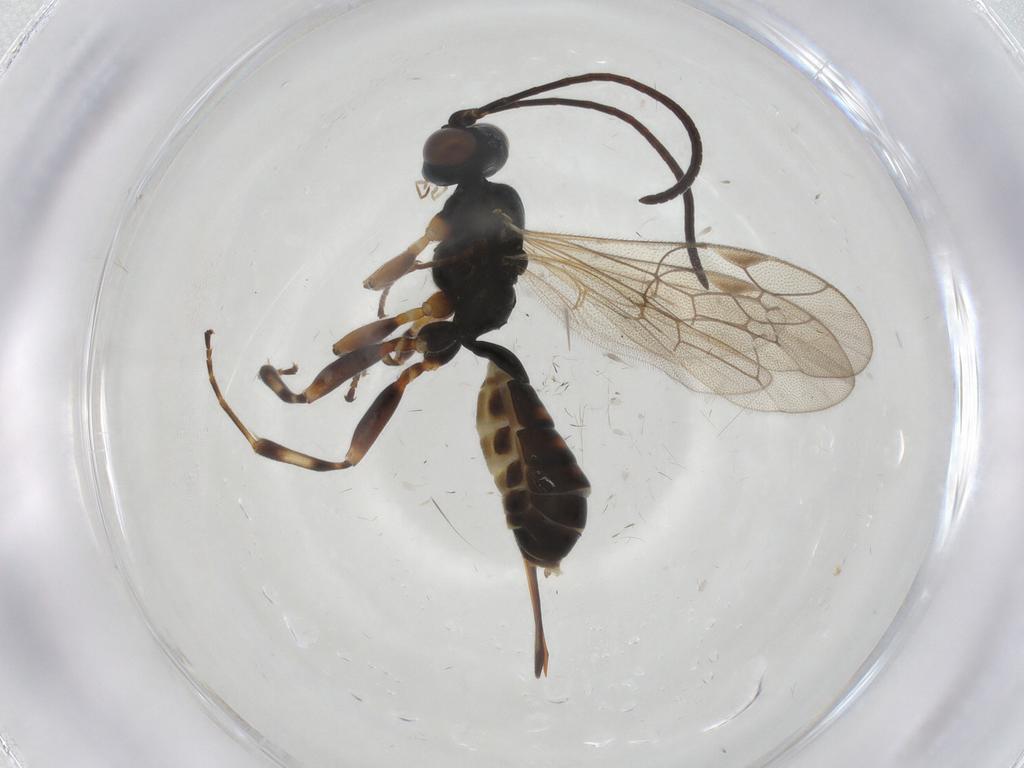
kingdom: Animalia
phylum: Arthropoda
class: Insecta
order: Hymenoptera
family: Ichneumonidae
